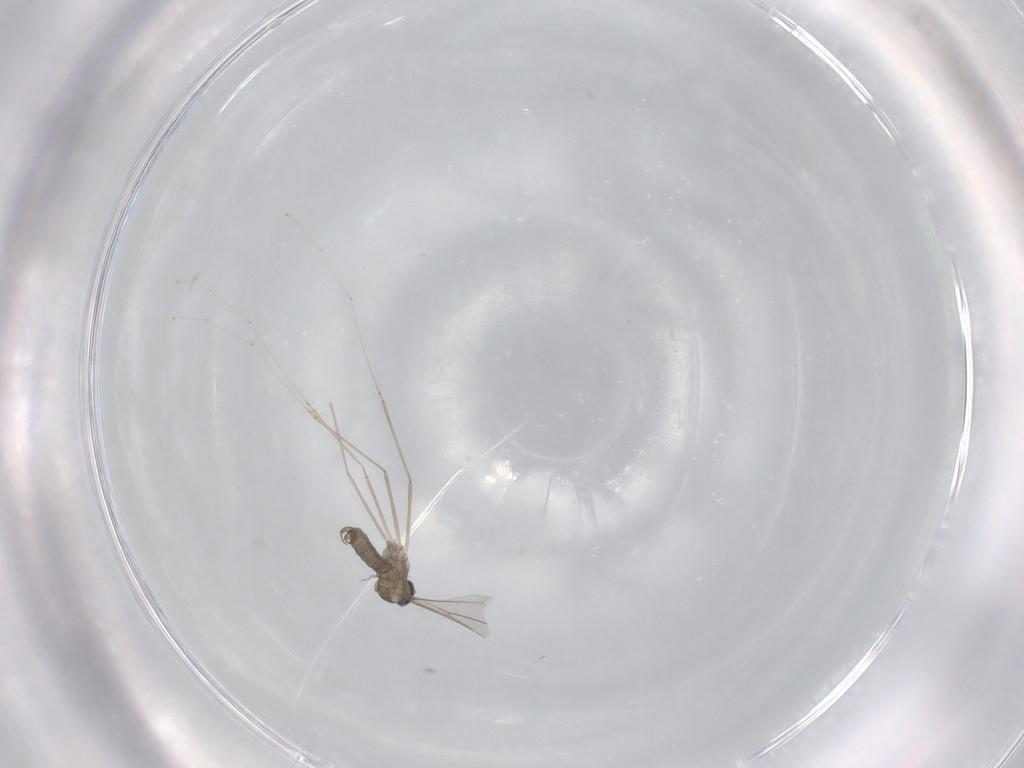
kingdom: Animalia
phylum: Arthropoda
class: Insecta
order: Diptera
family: Cecidomyiidae
